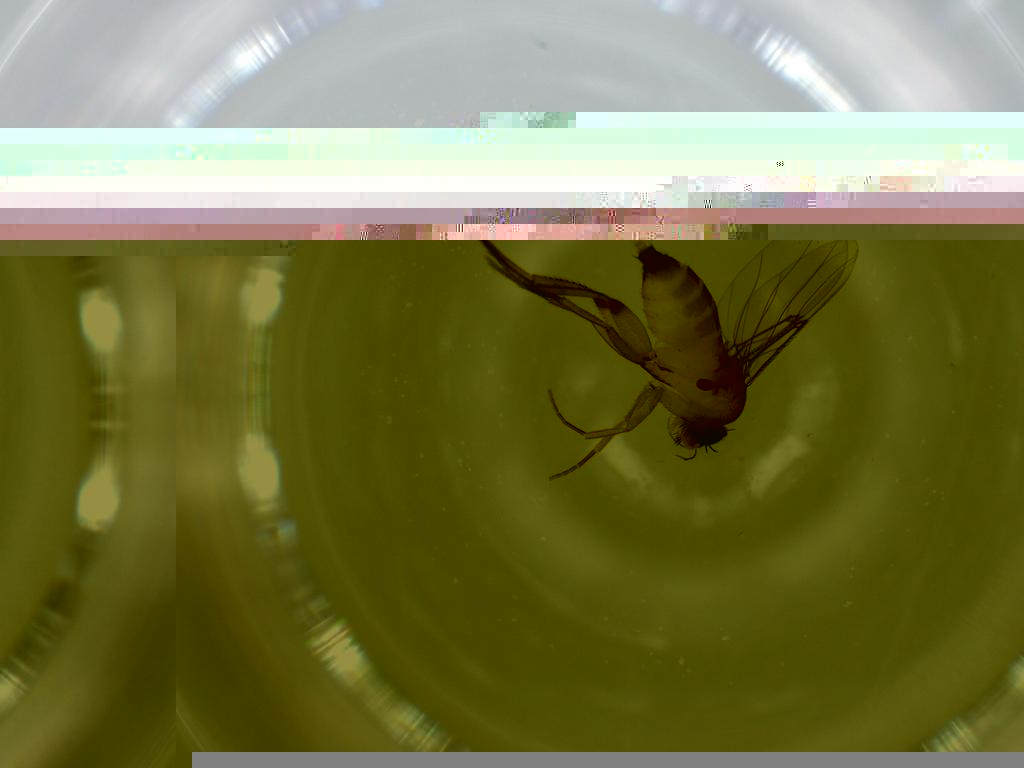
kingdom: Animalia
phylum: Arthropoda
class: Insecta
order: Diptera
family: Phoridae
